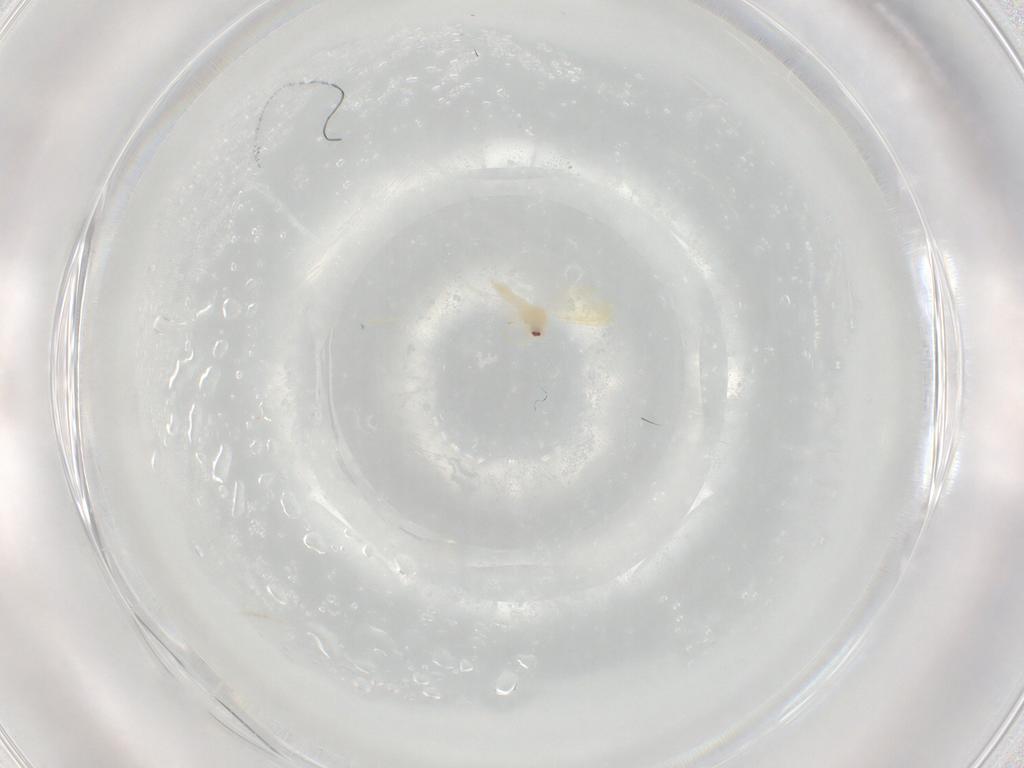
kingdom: Animalia
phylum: Arthropoda
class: Insecta
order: Hemiptera
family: Aleyrodidae
